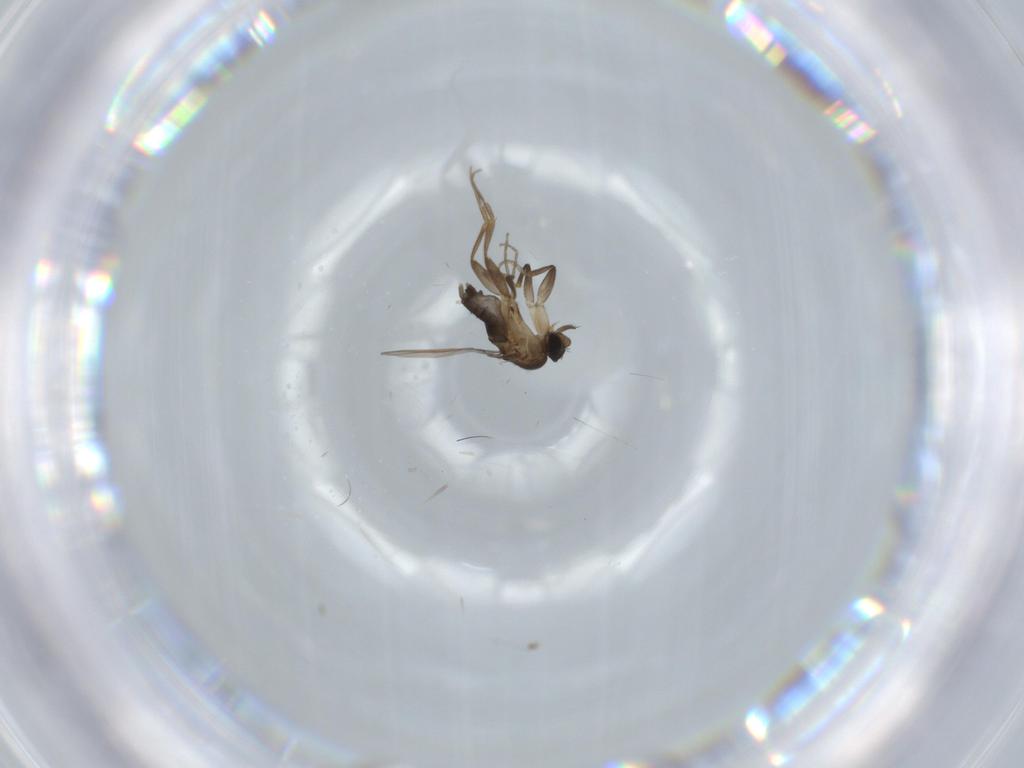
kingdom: Animalia
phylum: Arthropoda
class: Insecta
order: Diptera
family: Phoridae
